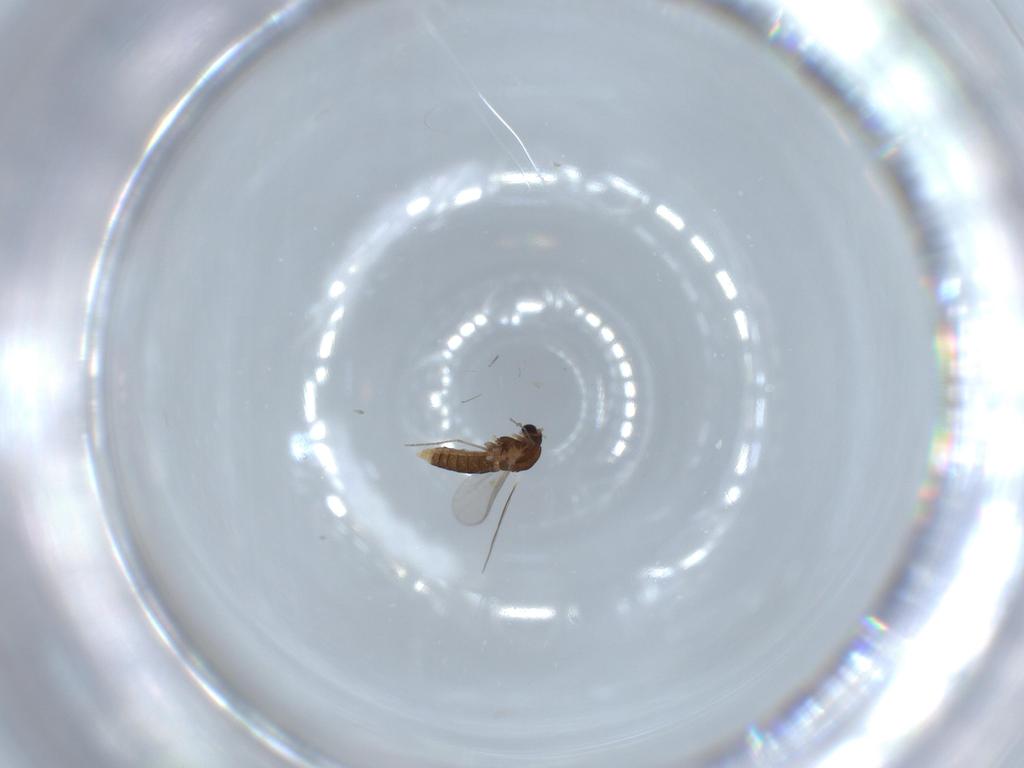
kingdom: Animalia
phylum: Arthropoda
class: Insecta
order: Diptera
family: Chironomidae
